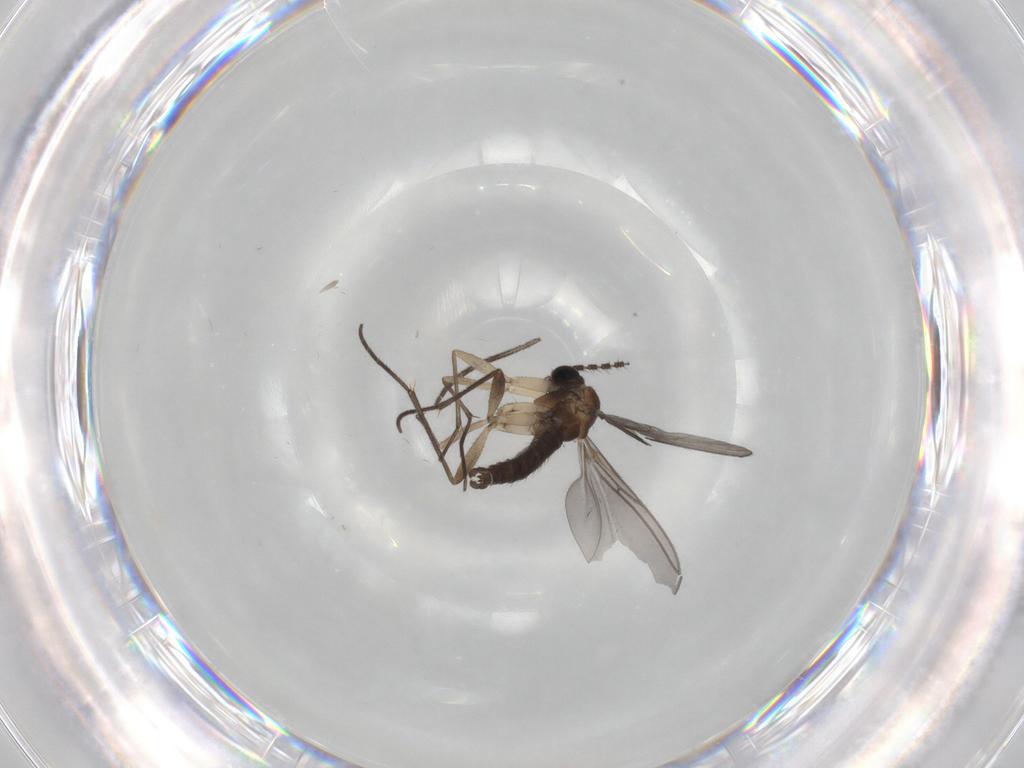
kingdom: Animalia
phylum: Arthropoda
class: Insecta
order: Diptera
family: Sciaridae
